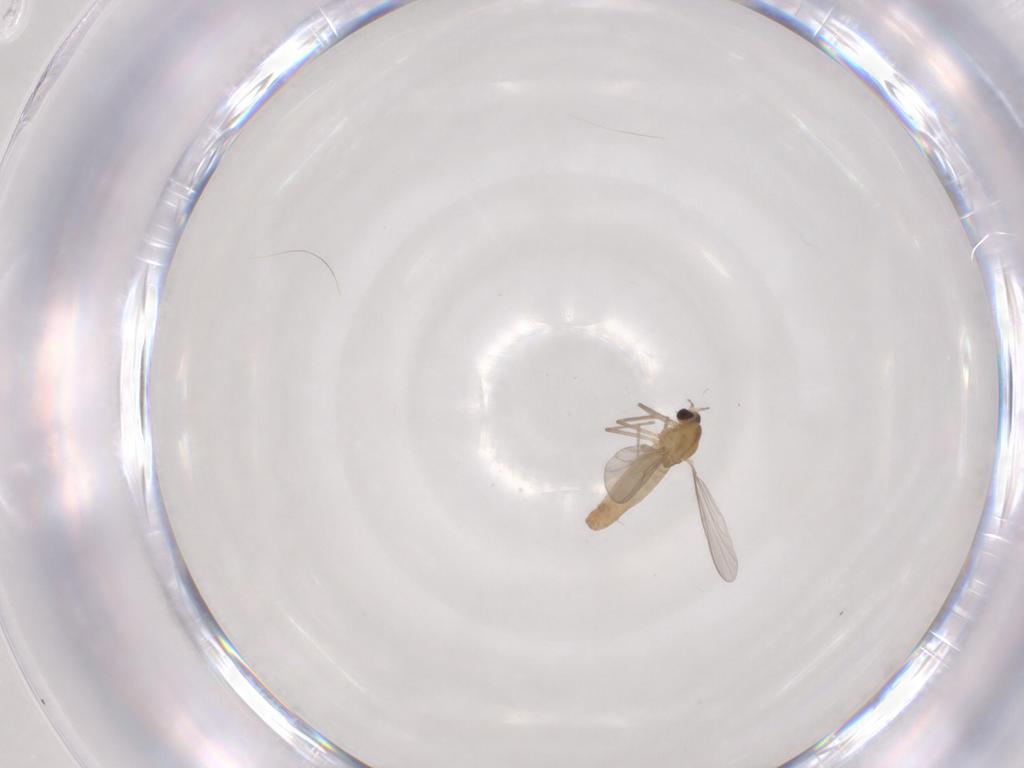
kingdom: Animalia
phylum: Arthropoda
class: Insecta
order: Diptera
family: Chironomidae
